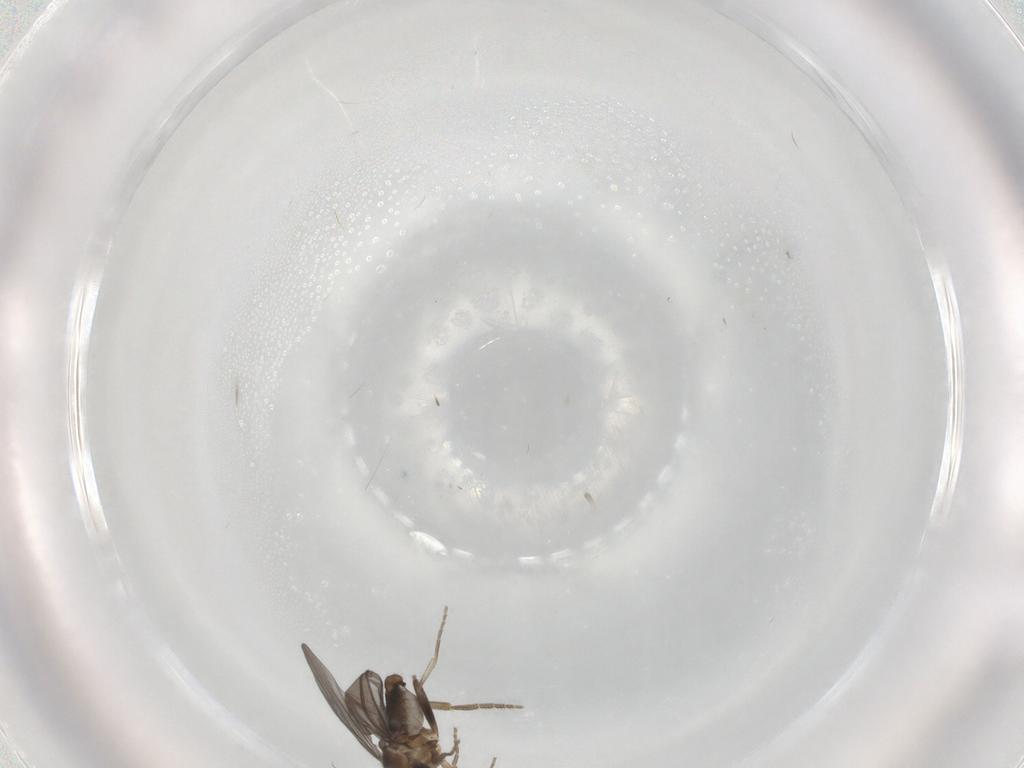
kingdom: Animalia
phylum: Arthropoda
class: Insecta
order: Diptera
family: Phoridae
